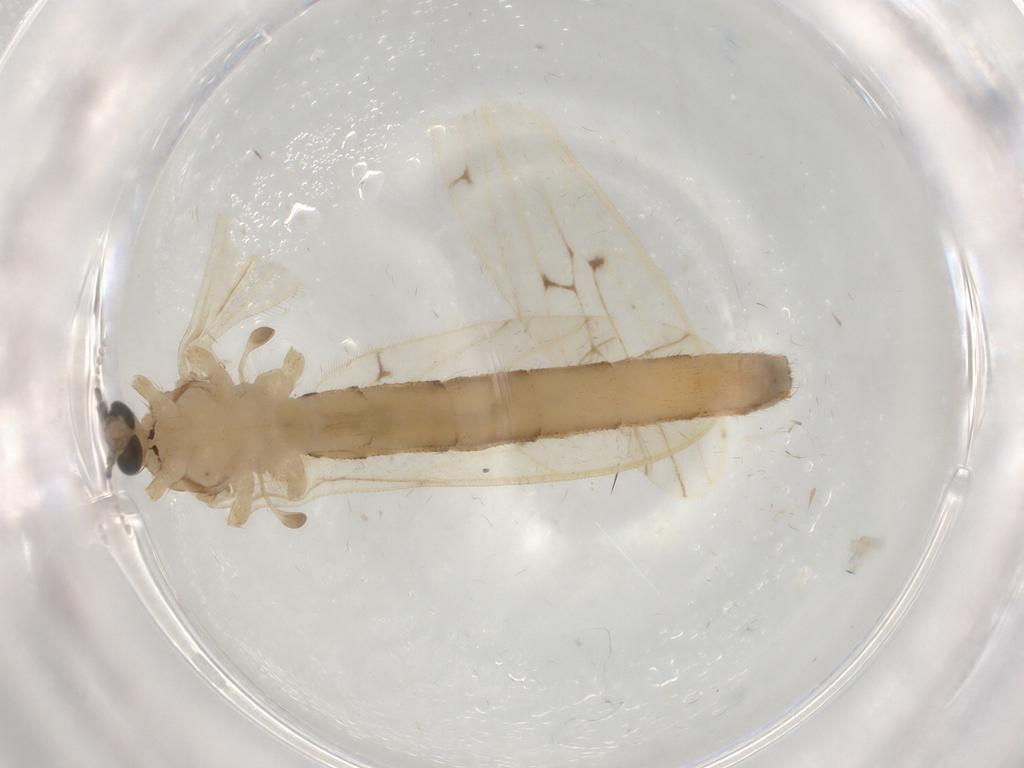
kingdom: Animalia
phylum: Arthropoda
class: Insecta
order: Diptera
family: Limoniidae
